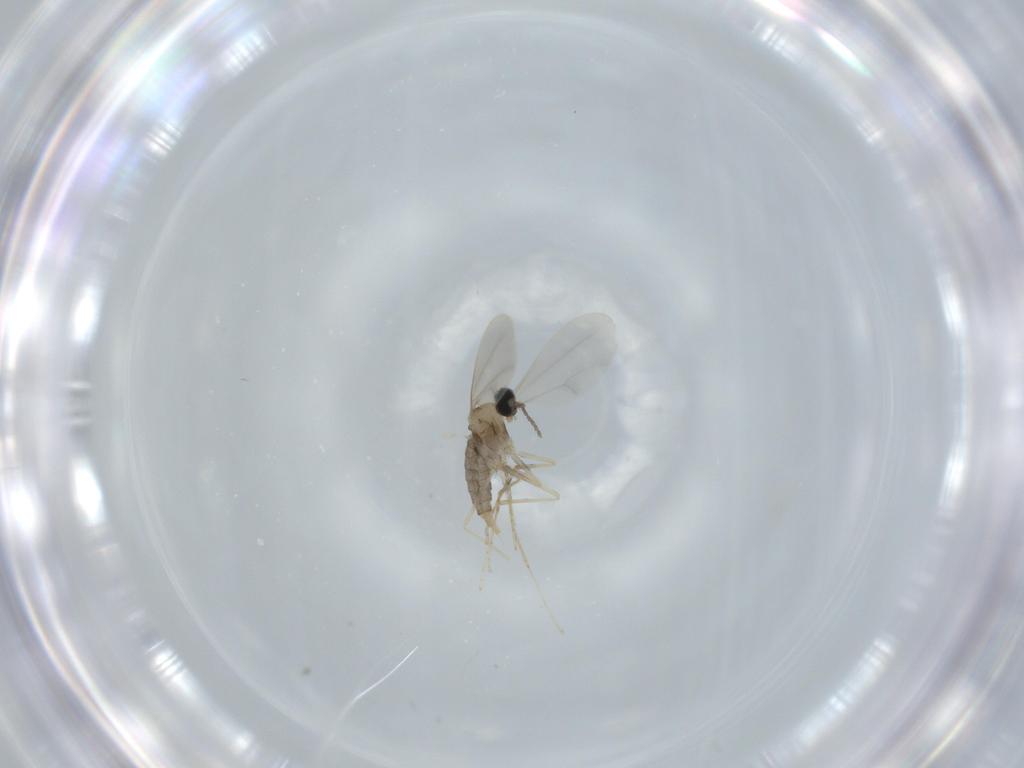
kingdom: Animalia
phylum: Arthropoda
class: Insecta
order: Diptera
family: Cecidomyiidae
